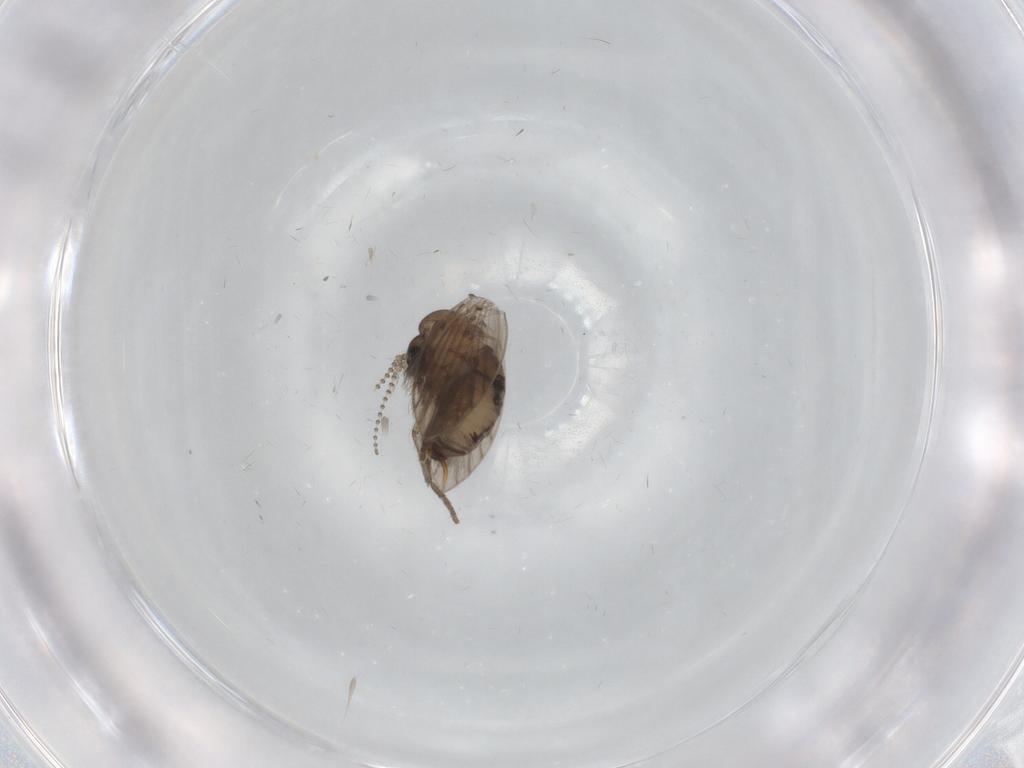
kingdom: Animalia
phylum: Arthropoda
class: Insecta
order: Diptera
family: Psychodidae
